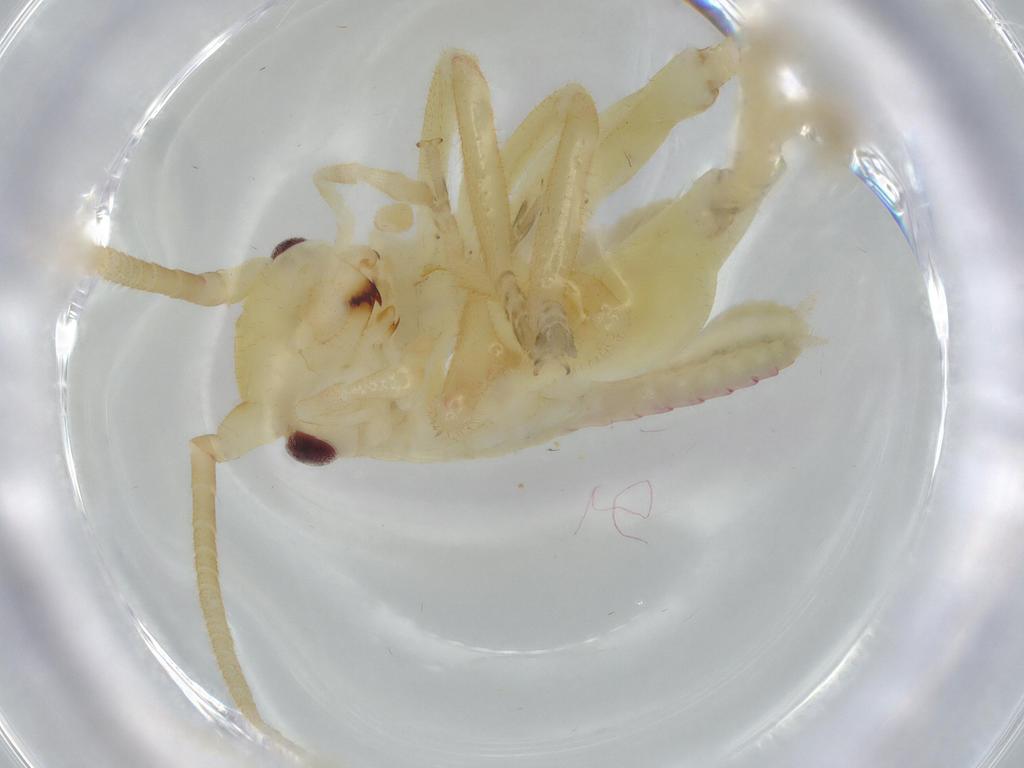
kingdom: Animalia
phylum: Arthropoda
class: Insecta
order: Orthoptera
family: Gryllacrididae
